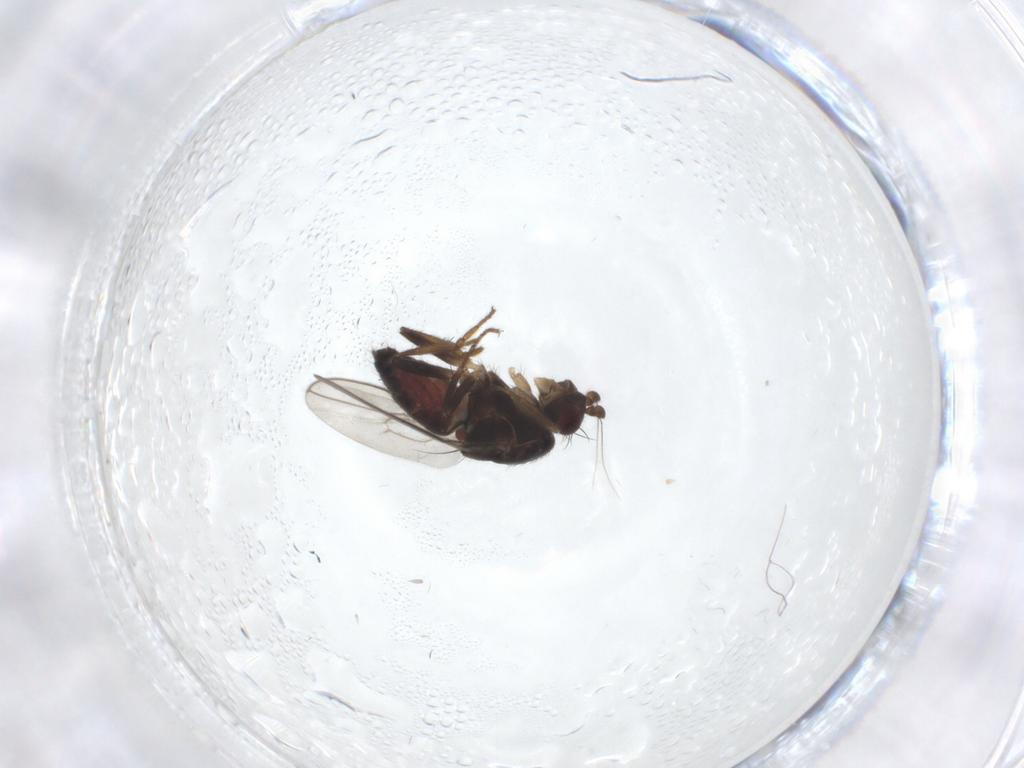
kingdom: Animalia
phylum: Arthropoda
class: Insecta
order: Diptera
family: Sphaeroceridae
